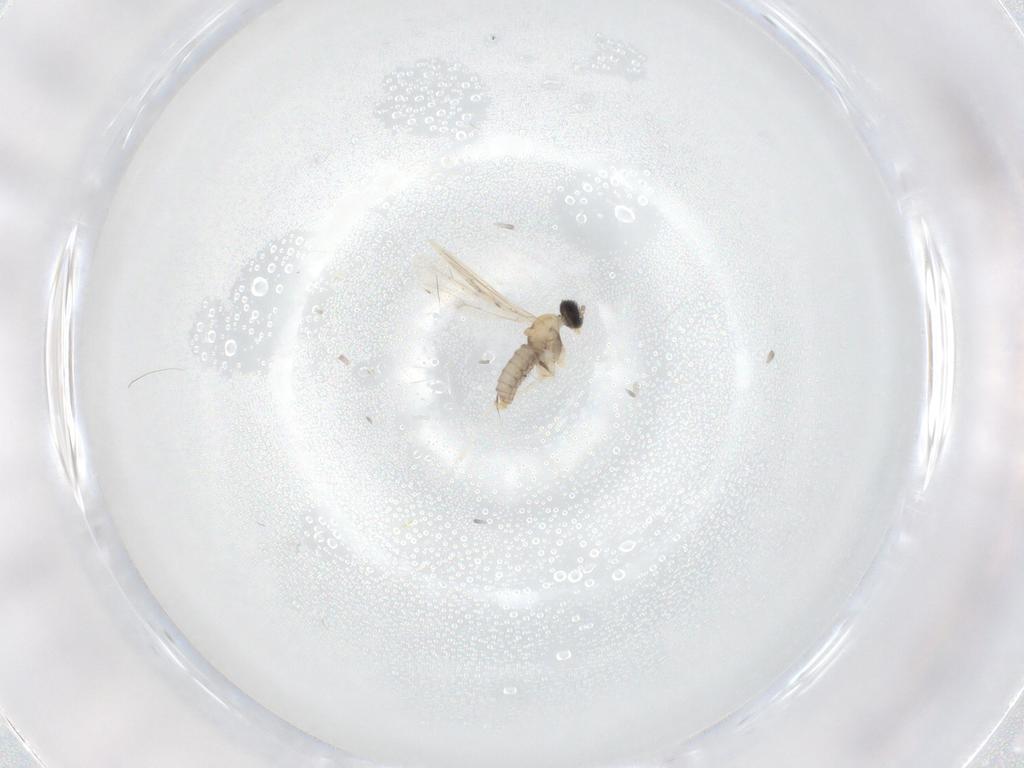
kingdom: Animalia
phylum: Arthropoda
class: Insecta
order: Diptera
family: Cecidomyiidae
